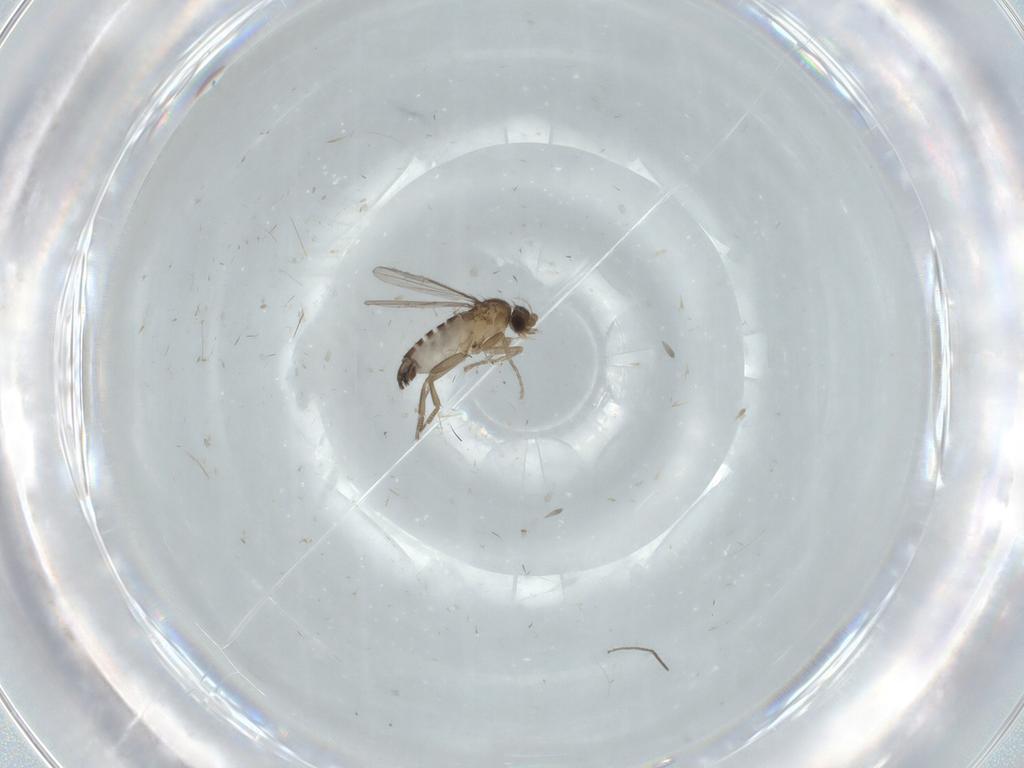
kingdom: Animalia
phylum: Arthropoda
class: Insecta
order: Diptera
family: Phoridae
